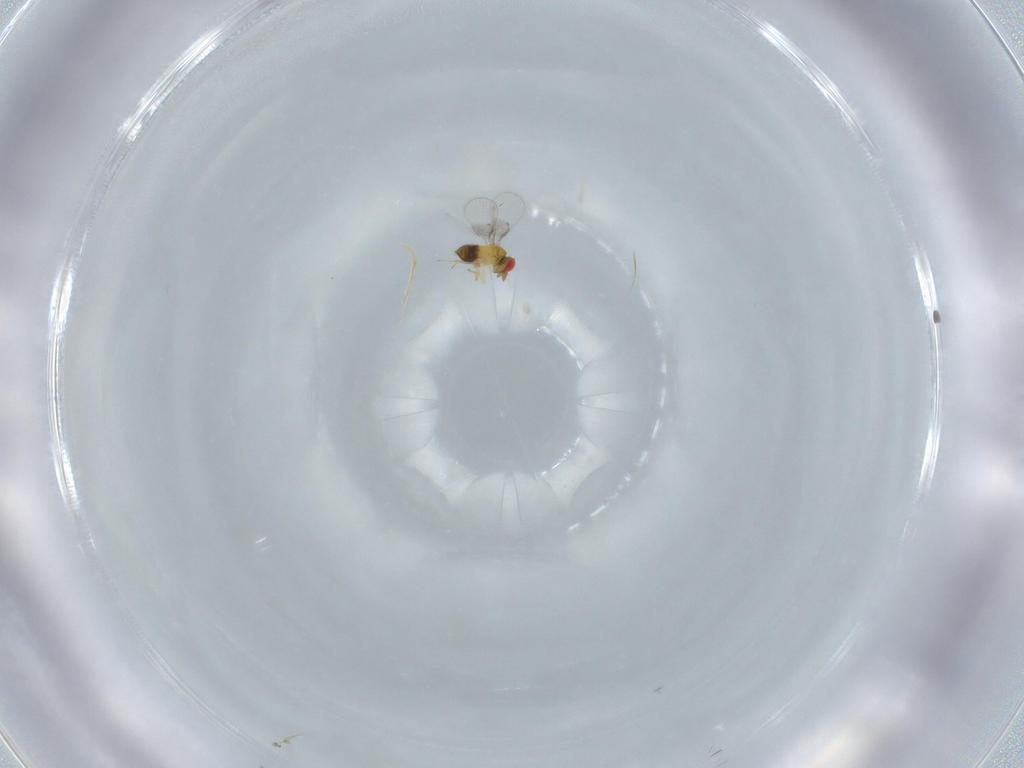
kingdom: Animalia
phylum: Arthropoda
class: Insecta
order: Hymenoptera
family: Trichogrammatidae
